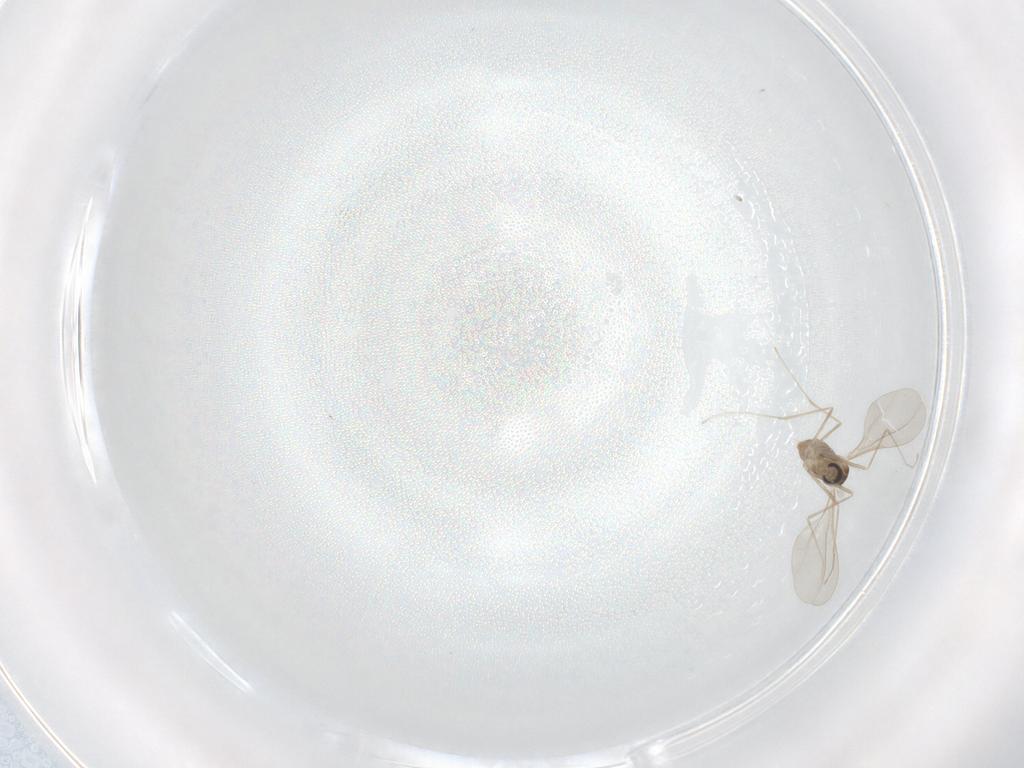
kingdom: Animalia
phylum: Arthropoda
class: Insecta
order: Diptera
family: Cecidomyiidae
